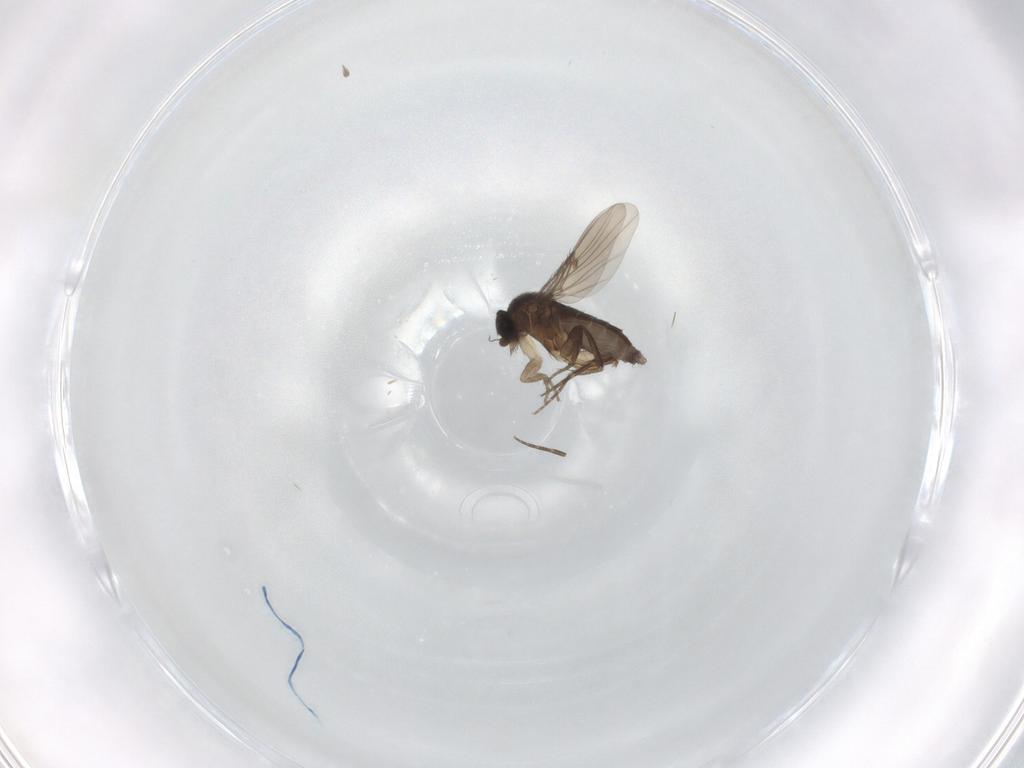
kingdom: Animalia
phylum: Arthropoda
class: Insecta
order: Diptera
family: Phoridae
